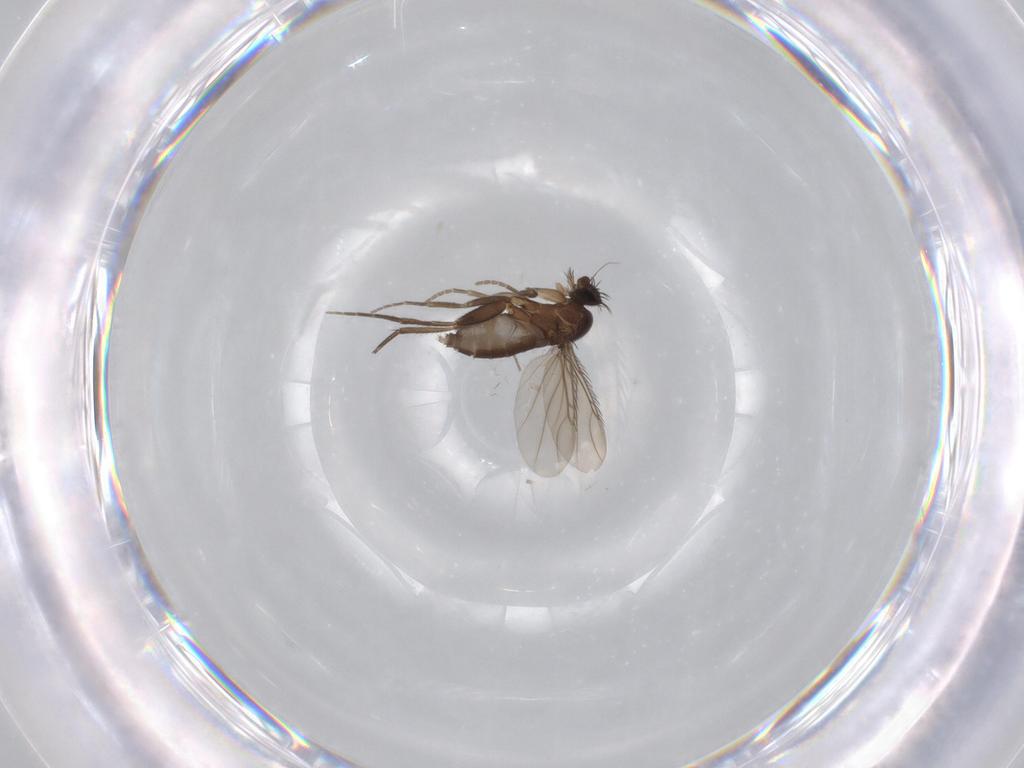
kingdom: Animalia
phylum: Arthropoda
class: Insecta
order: Diptera
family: Phoridae
